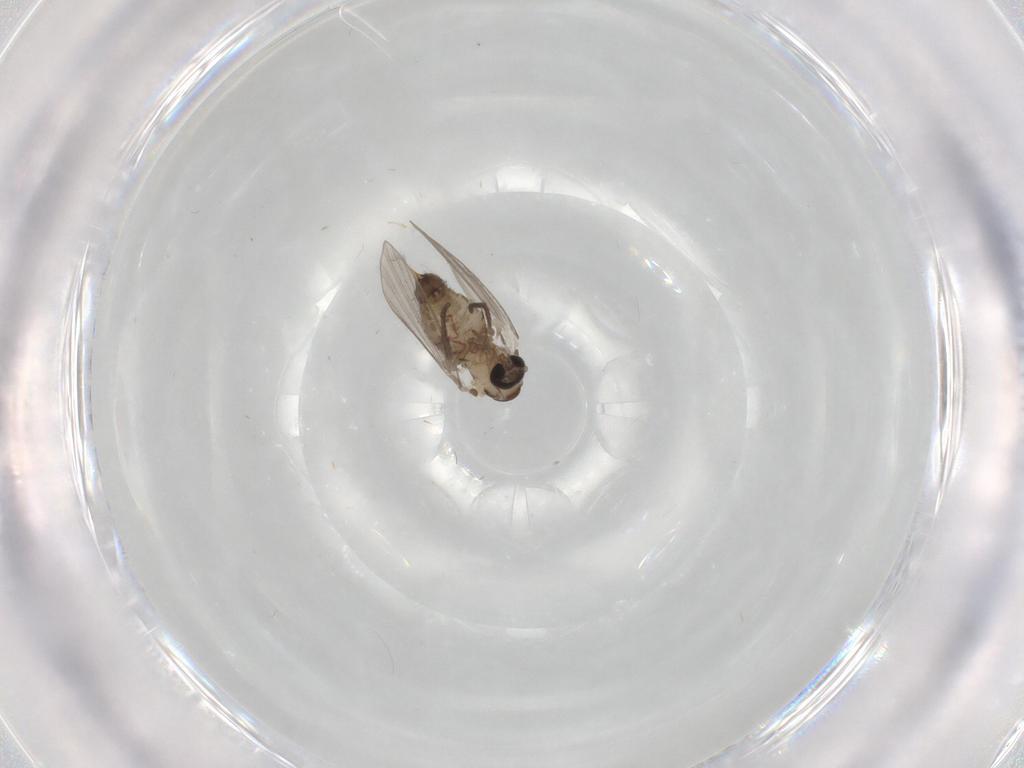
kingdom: Animalia
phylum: Arthropoda
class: Insecta
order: Diptera
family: Psychodidae
